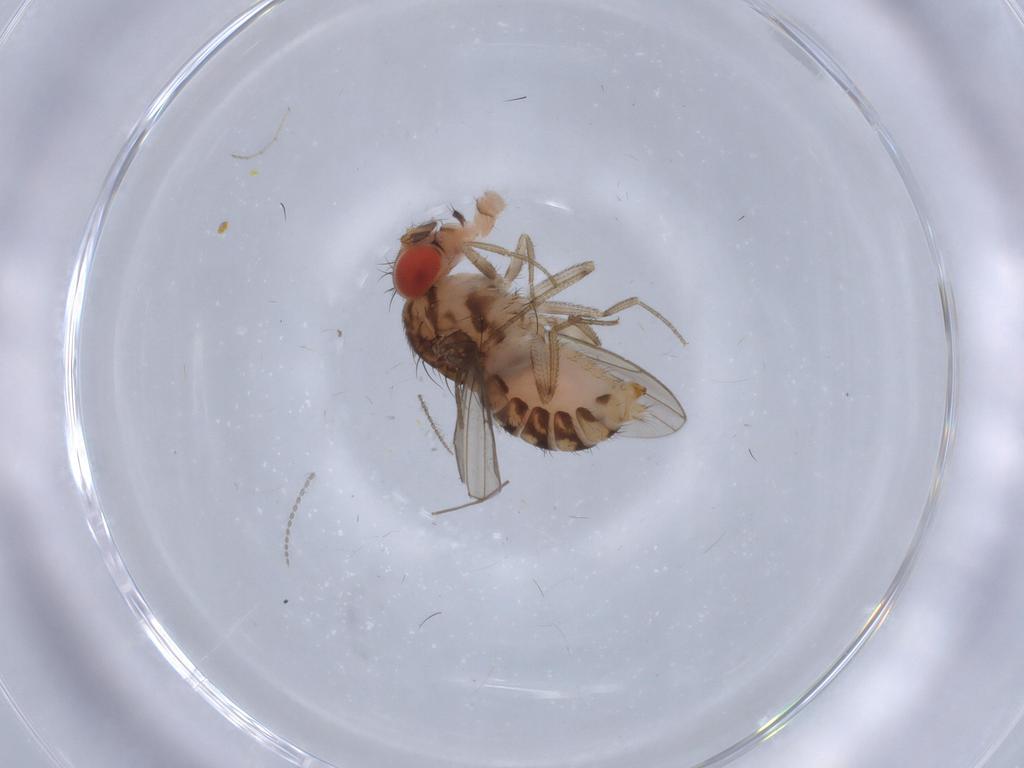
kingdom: Animalia
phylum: Arthropoda
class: Insecta
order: Diptera
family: Drosophilidae
